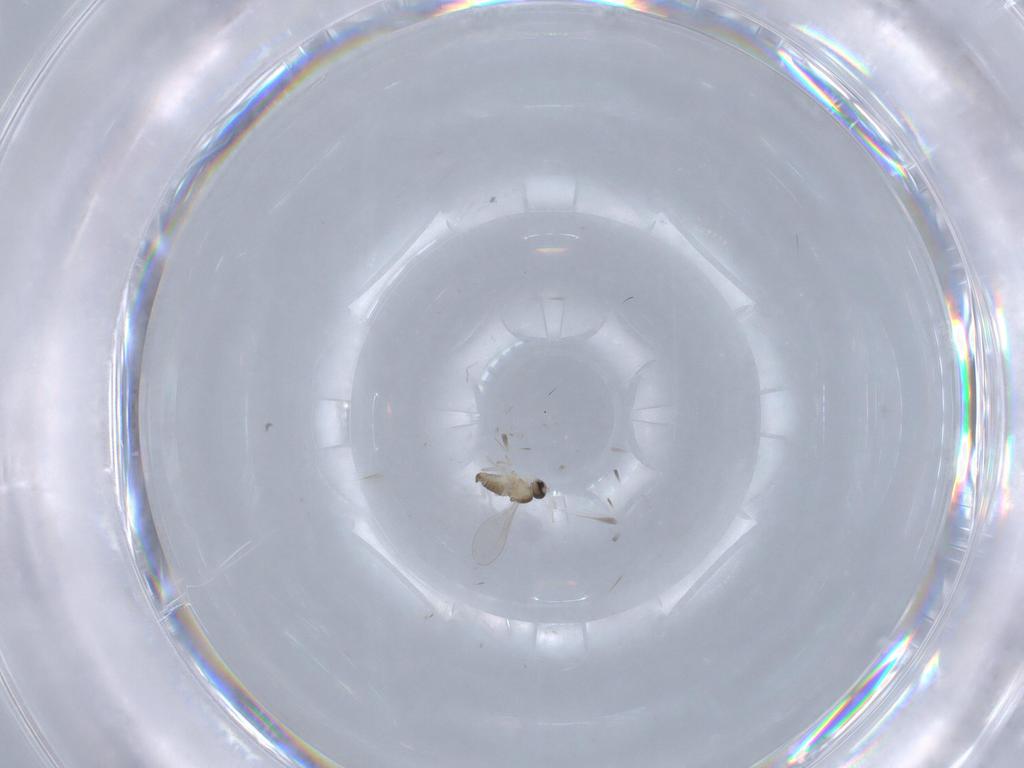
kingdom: Animalia
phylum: Arthropoda
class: Insecta
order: Diptera
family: Cecidomyiidae
